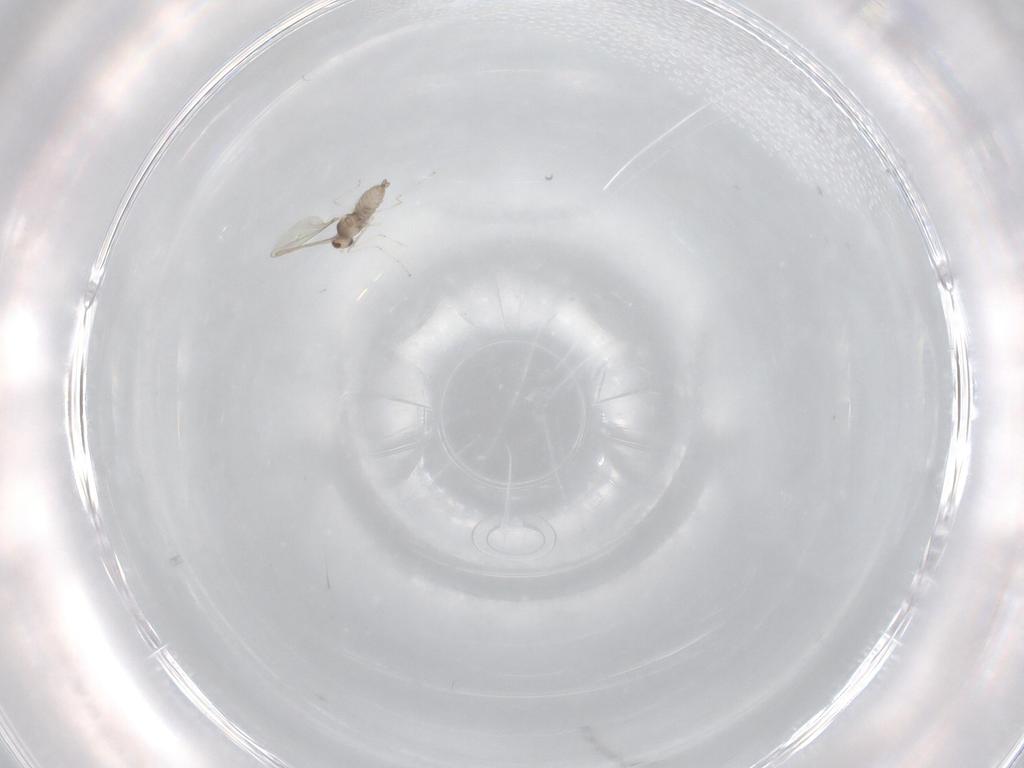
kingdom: Animalia
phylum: Arthropoda
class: Insecta
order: Diptera
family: Cecidomyiidae
